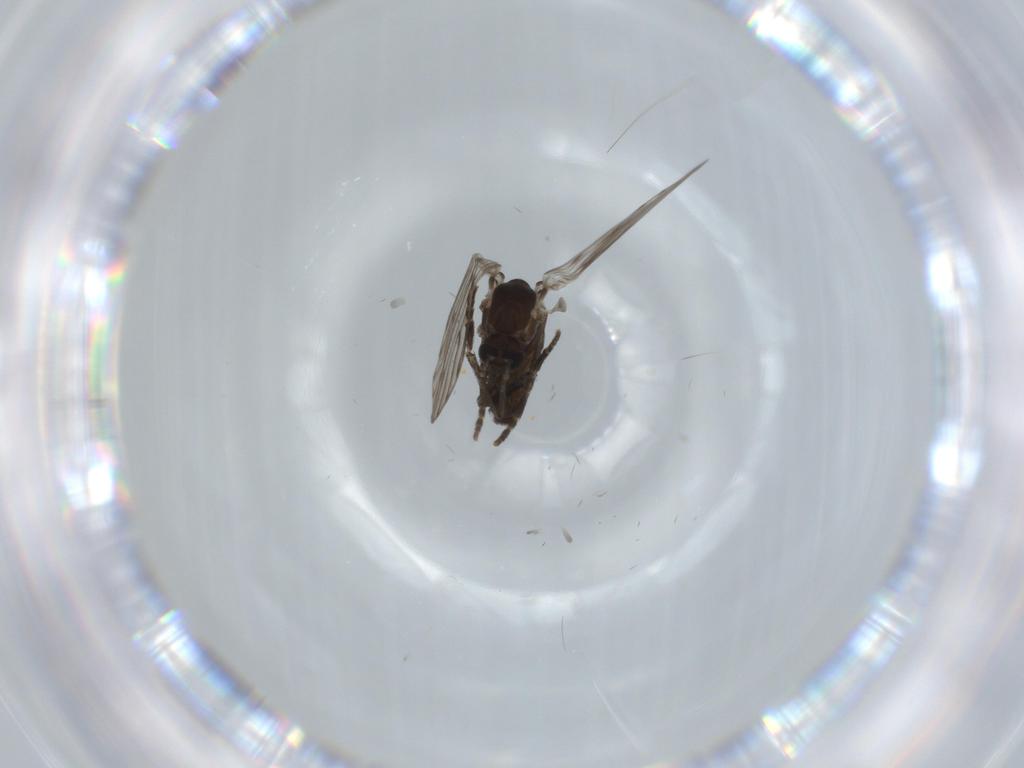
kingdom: Animalia
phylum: Arthropoda
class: Insecta
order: Diptera
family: Psychodidae
